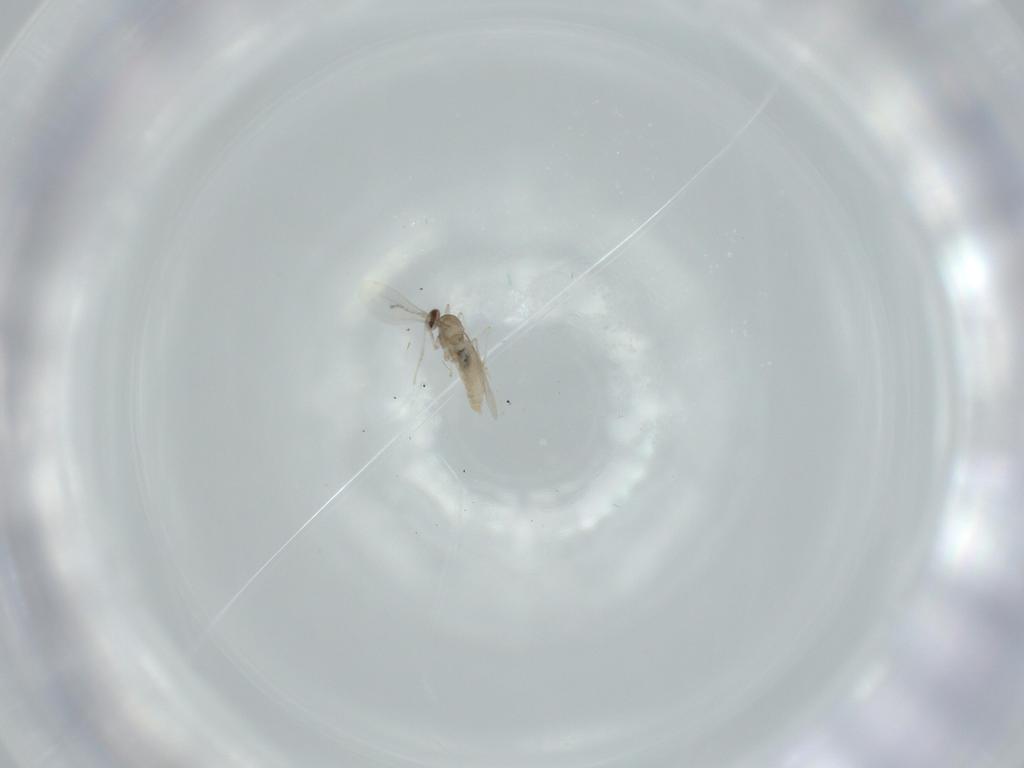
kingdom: Animalia
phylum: Arthropoda
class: Insecta
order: Diptera
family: Cecidomyiidae
